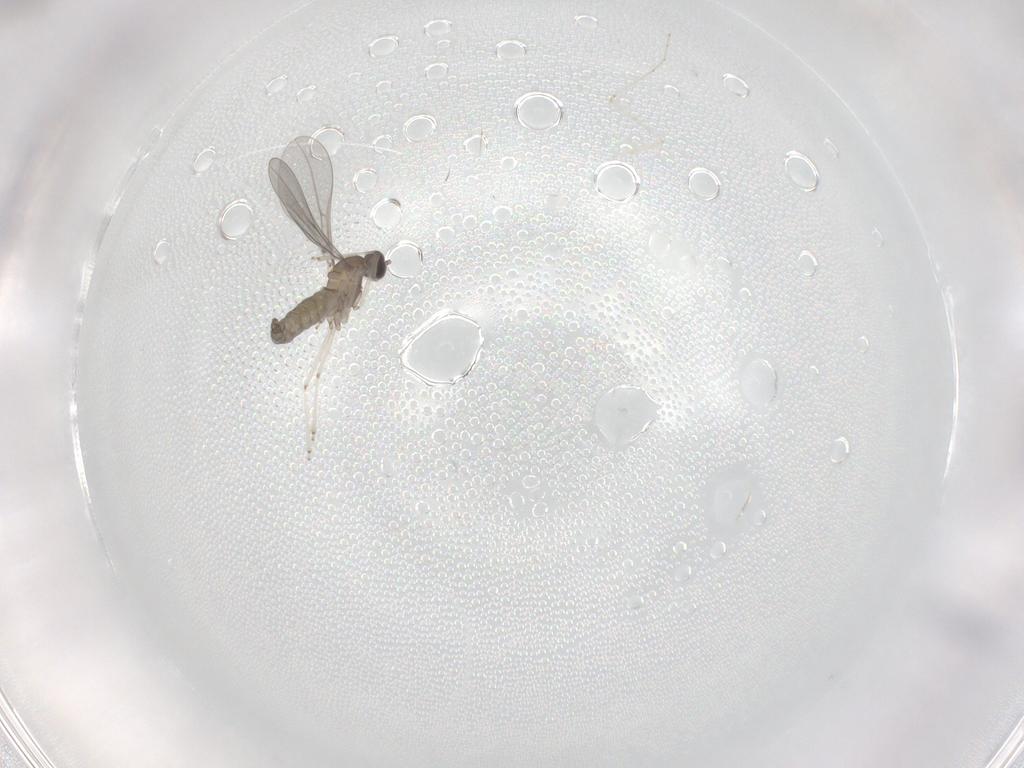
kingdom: Animalia
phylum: Arthropoda
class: Insecta
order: Diptera
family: Cecidomyiidae
